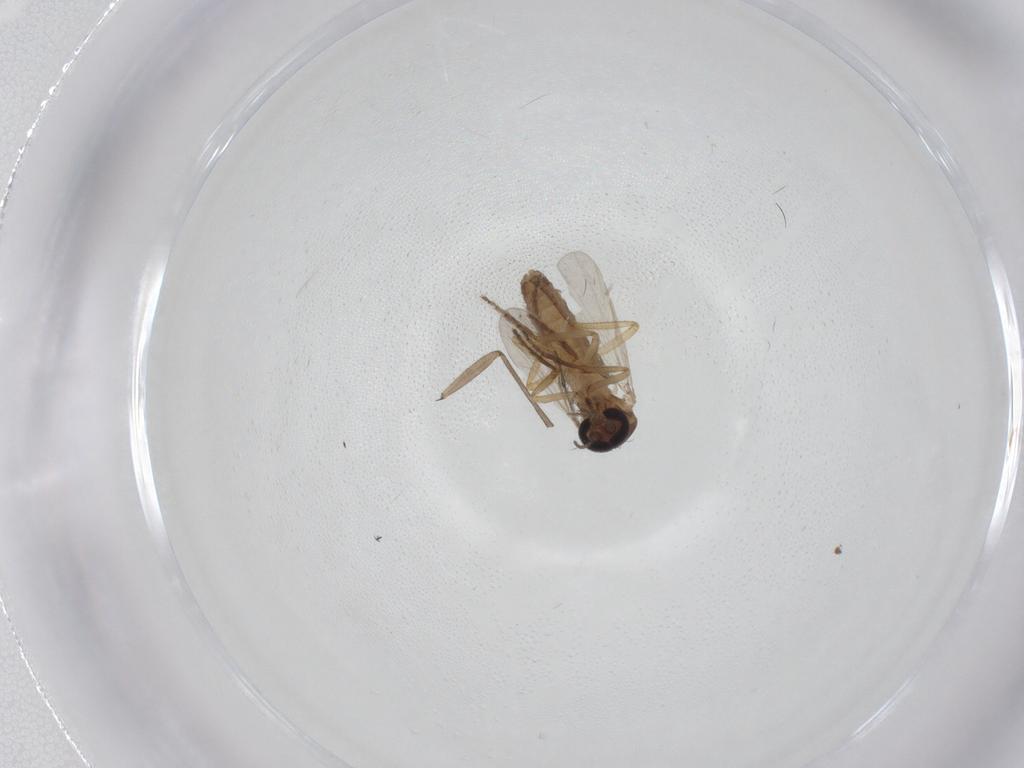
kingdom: Animalia
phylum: Arthropoda
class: Insecta
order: Diptera
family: Ceratopogonidae
